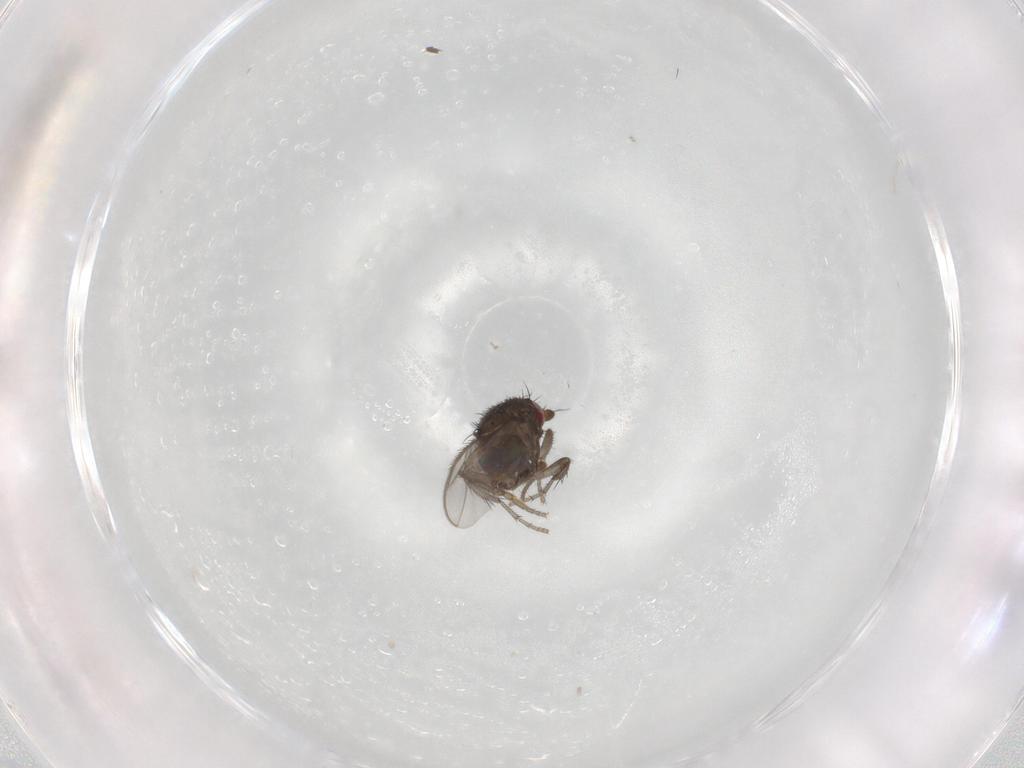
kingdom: Animalia
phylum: Arthropoda
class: Insecta
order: Diptera
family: Sphaeroceridae
